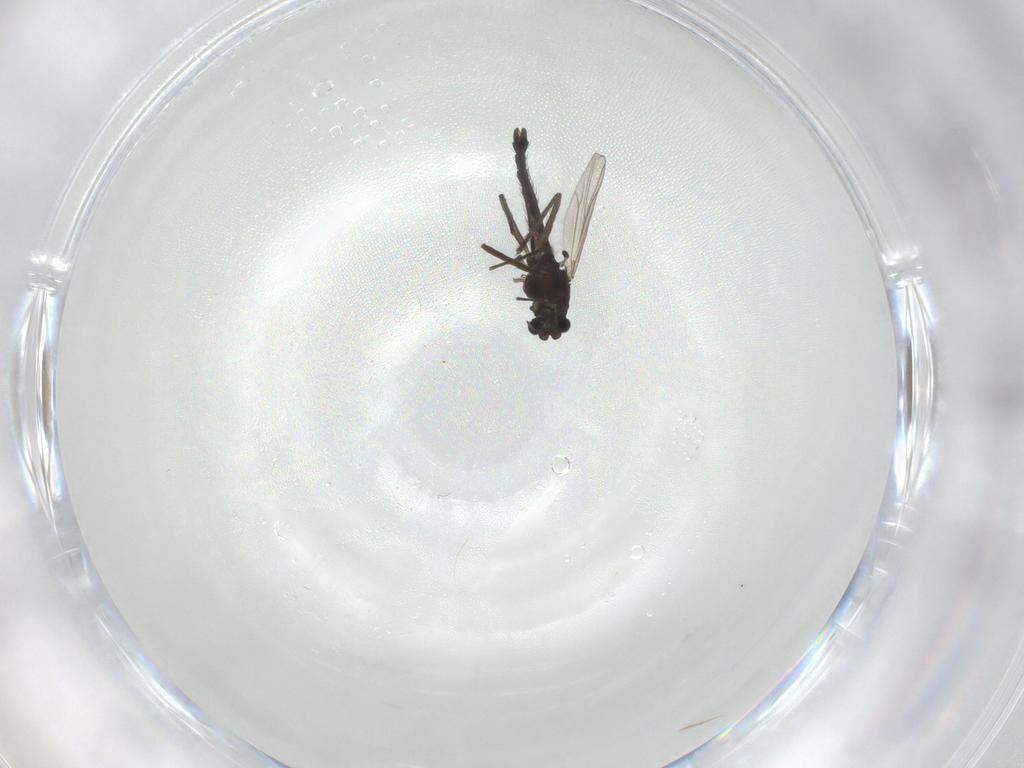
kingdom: Animalia
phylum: Arthropoda
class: Insecta
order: Diptera
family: Chironomidae
